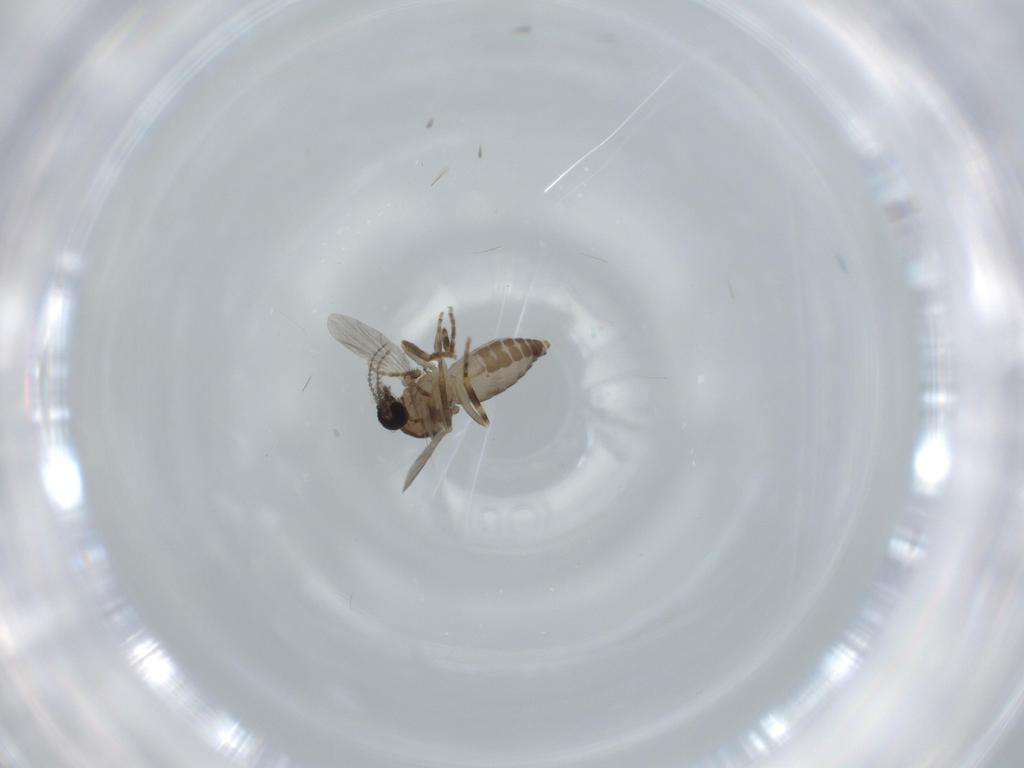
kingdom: Animalia
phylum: Arthropoda
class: Insecta
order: Diptera
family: Ceratopogonidae
